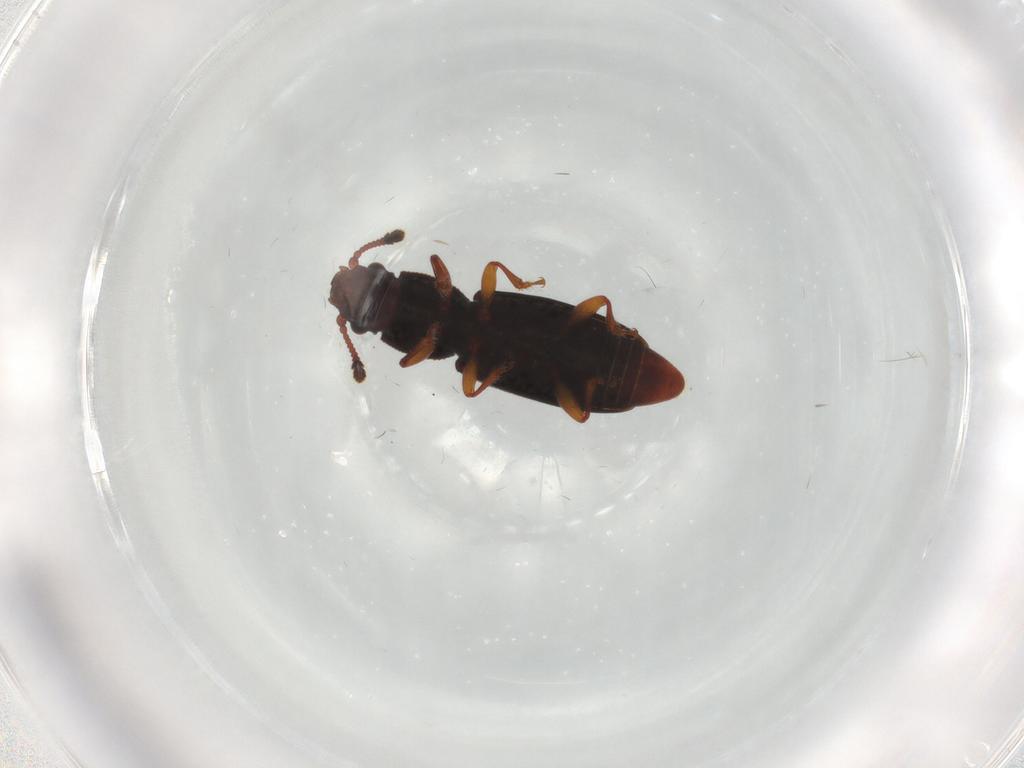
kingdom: Animalia
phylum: Arthropoda
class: Insecta
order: Coleoptera
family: Monotomidae
